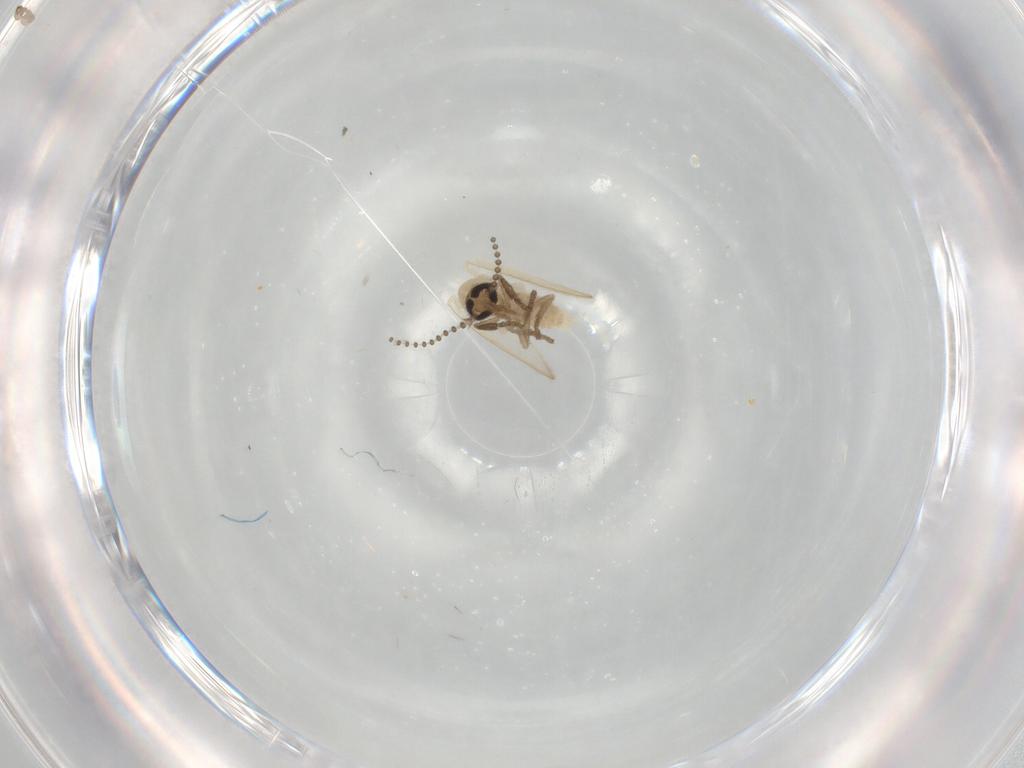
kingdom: Animalia
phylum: Arthropoda
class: Insecta
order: Diptera
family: Psychodidae
